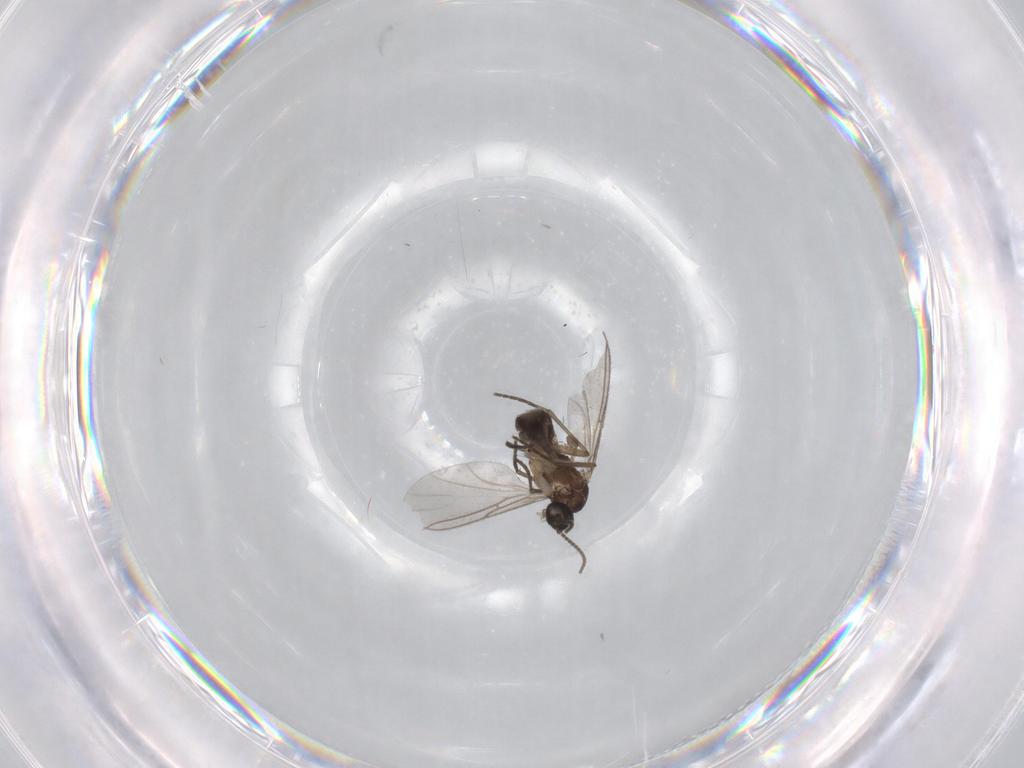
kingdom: Animalia
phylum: Arthropoda
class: Insecta
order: Diptera
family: Sciaridae
